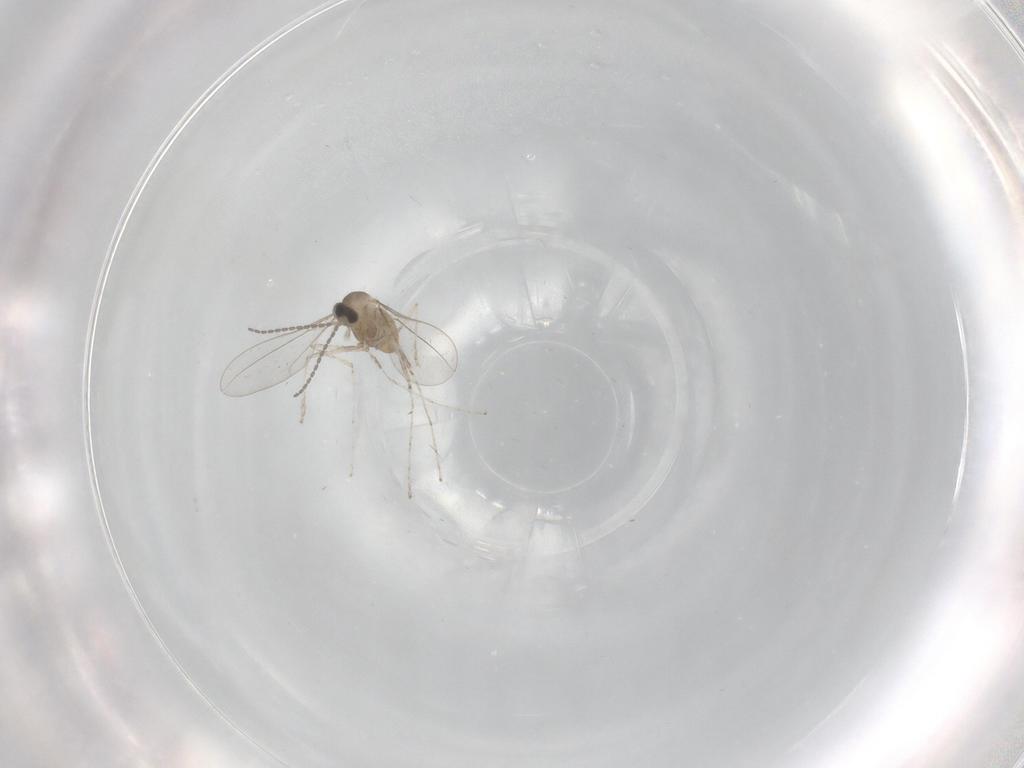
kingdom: Animalia
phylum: Arthropoda
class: Insecta
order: Diptera
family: Cecidomyiidae
